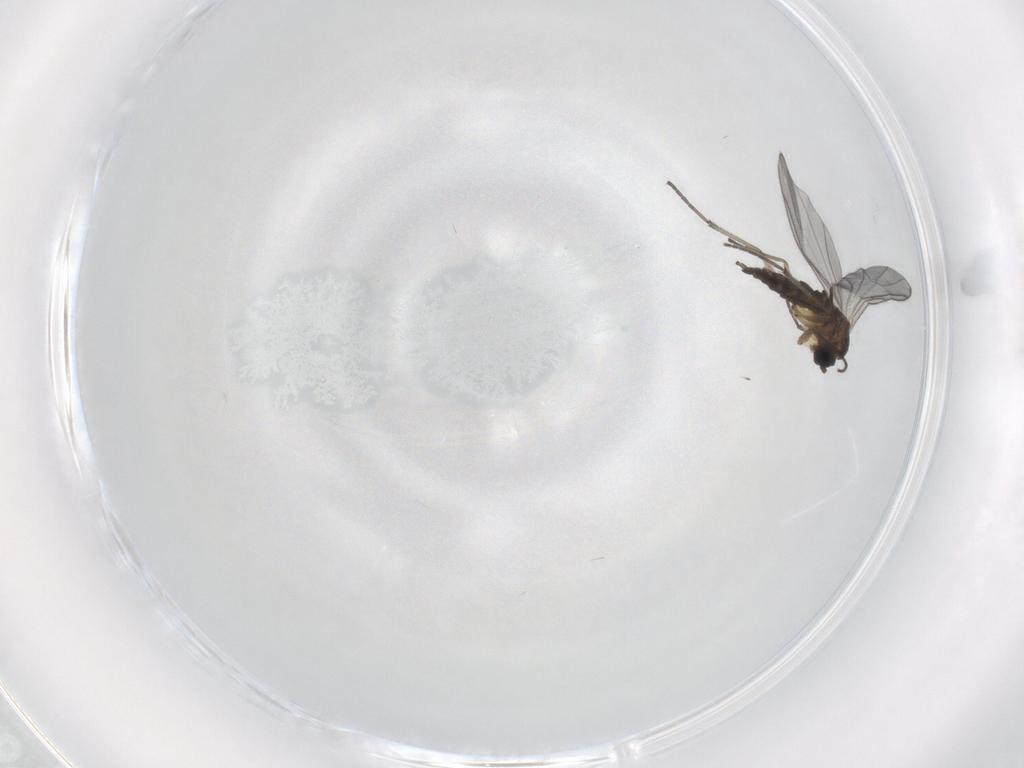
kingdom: Animalia
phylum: Arthropoda
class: Insecta
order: Diptera
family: Sciaridae
